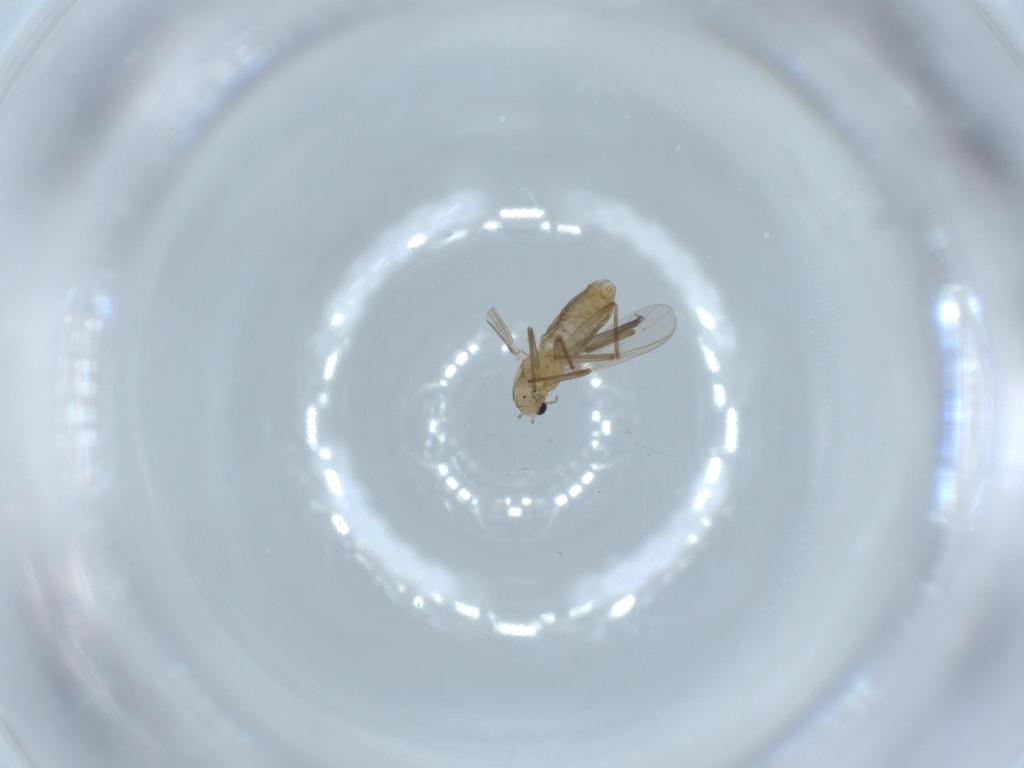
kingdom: Animalia
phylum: Arthropoda
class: Insecta
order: Diptera
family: Chironomidae
